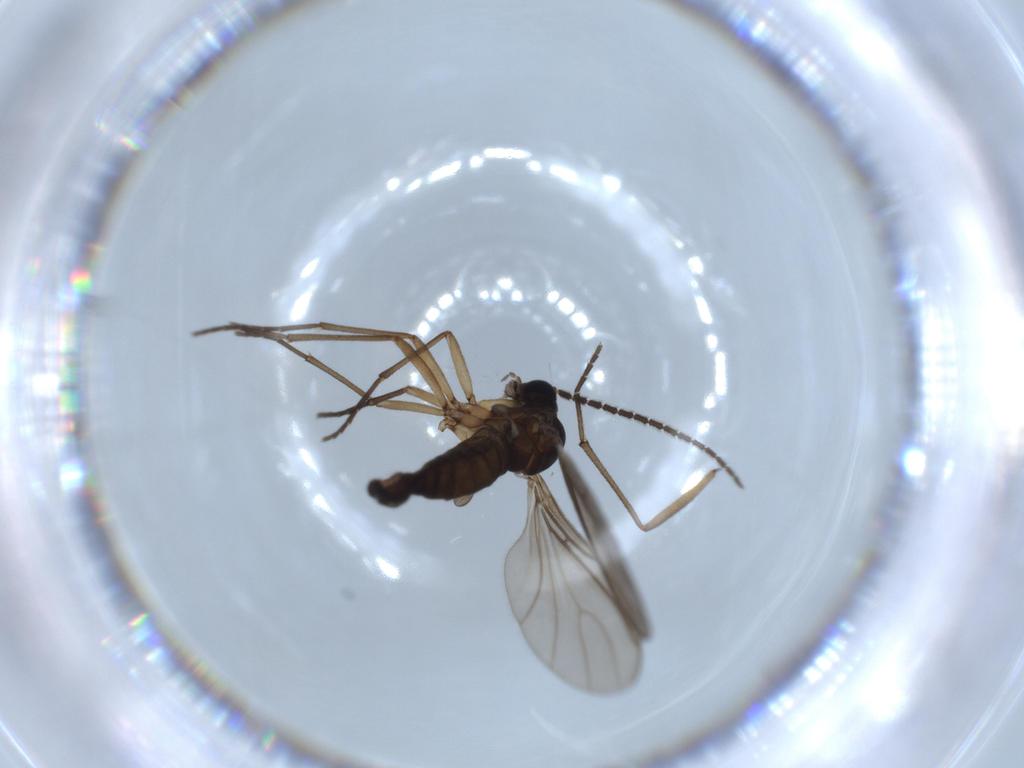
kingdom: Animalia
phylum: Arthropoda
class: Insecta
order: Diptera
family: Sciaridae
